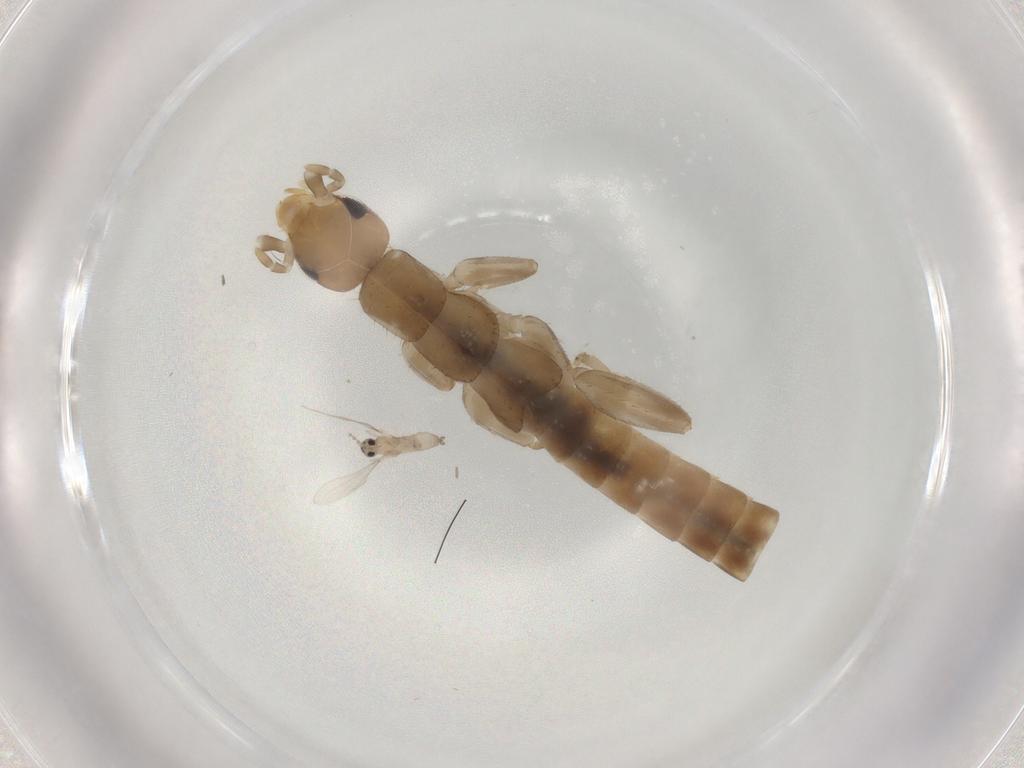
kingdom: Animalia
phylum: Arthropoda
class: Insecta
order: Diptera
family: Cecidomyiidae
